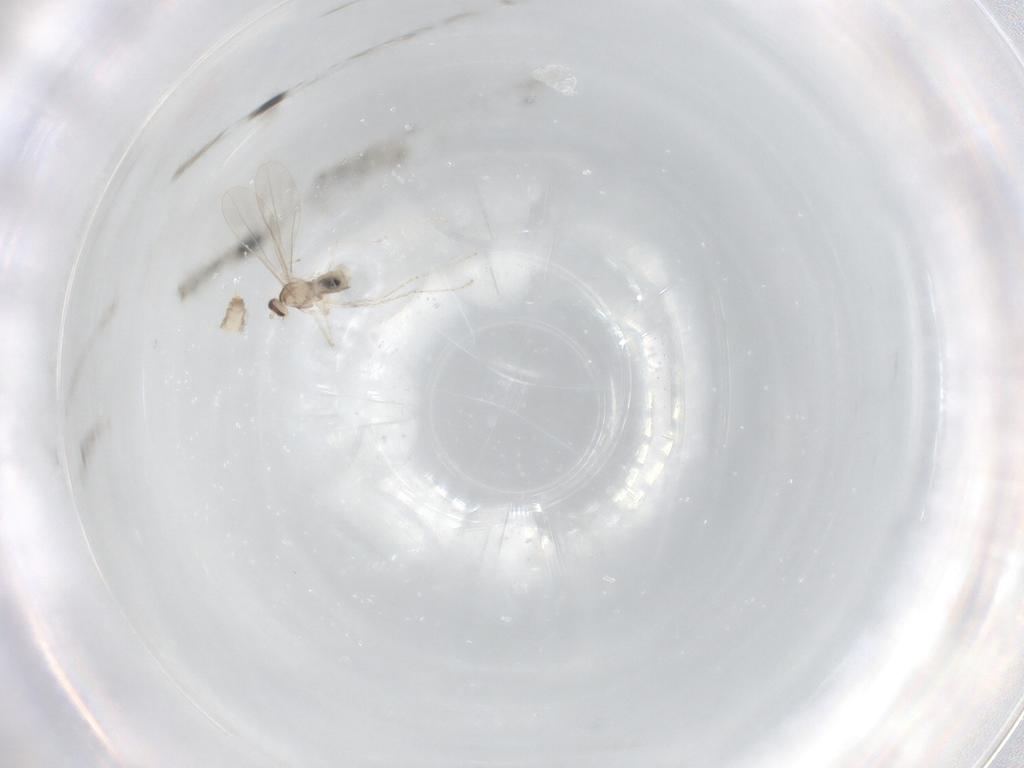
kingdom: Animalia
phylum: Arthropoda
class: Insecta
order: Diptera
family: Cecidomyiidae
